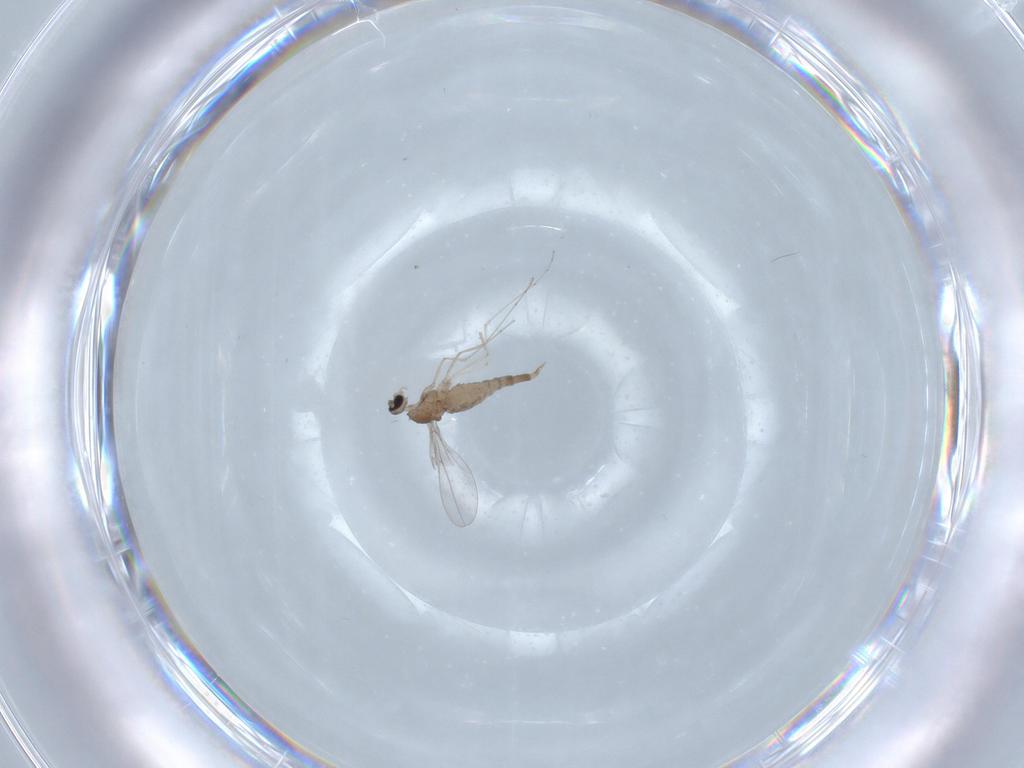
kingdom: Animalia
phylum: Arthropoda
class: Insecta
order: Diptera
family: Cecidomyiidae
